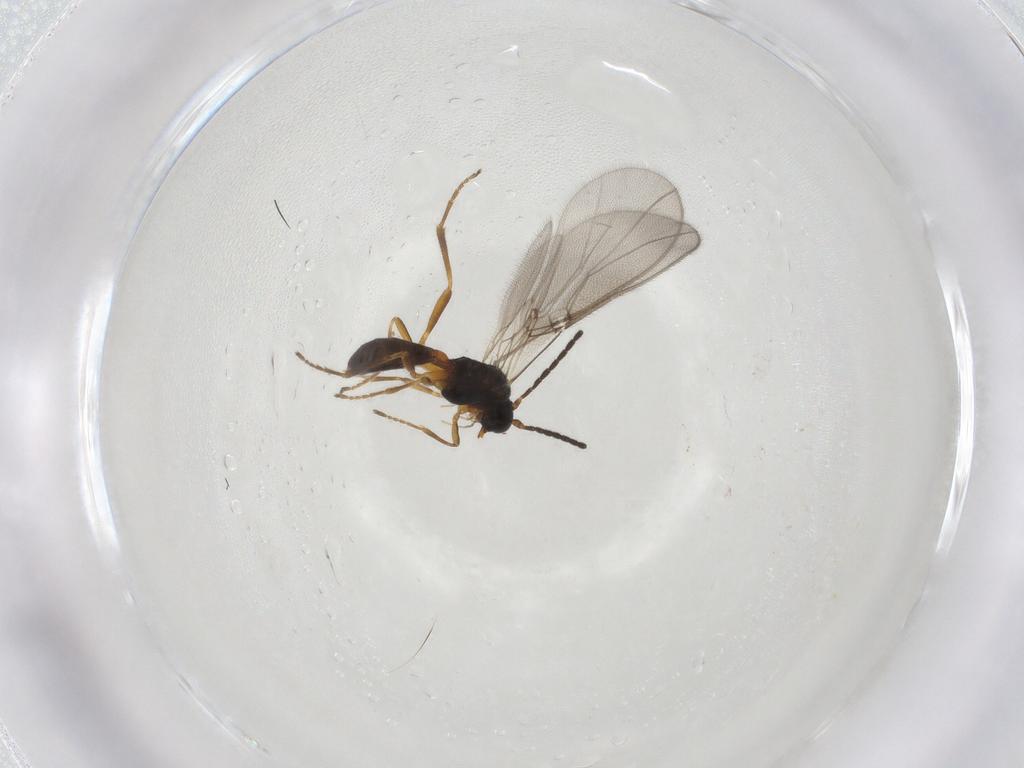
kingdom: Animalia
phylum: Arthropoda
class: Insecta
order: Hymenoptera
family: Braconidae
